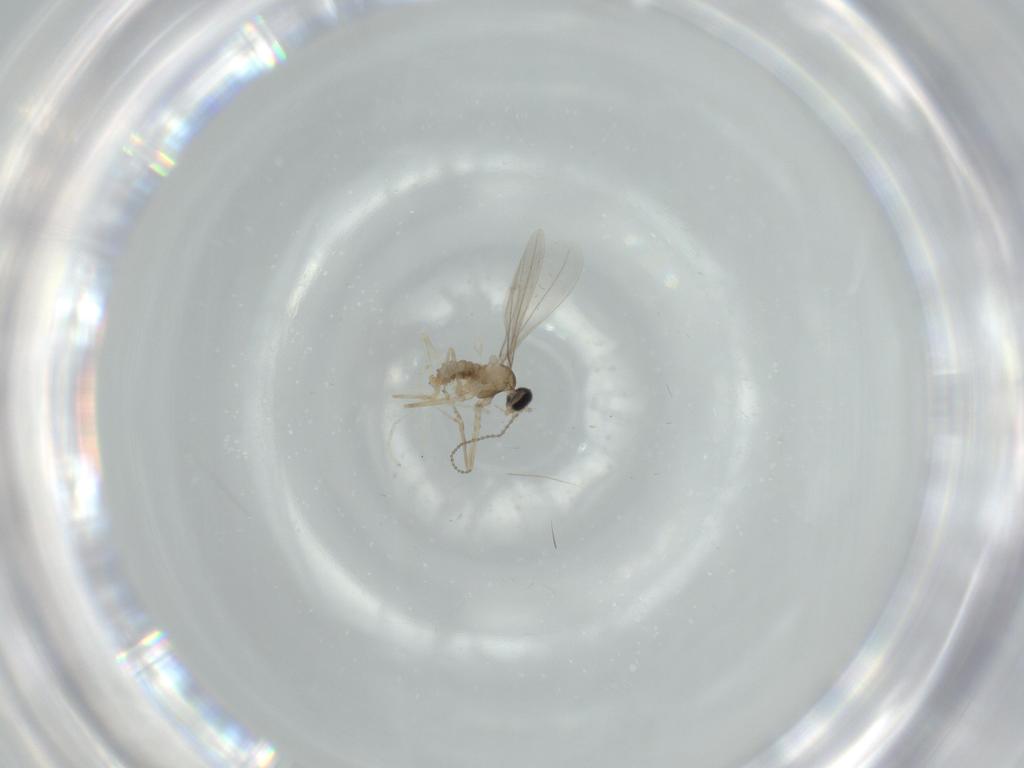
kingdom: Animalia
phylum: Arthropoda
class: Insecta
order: Diptera
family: Cecidomyiidae
